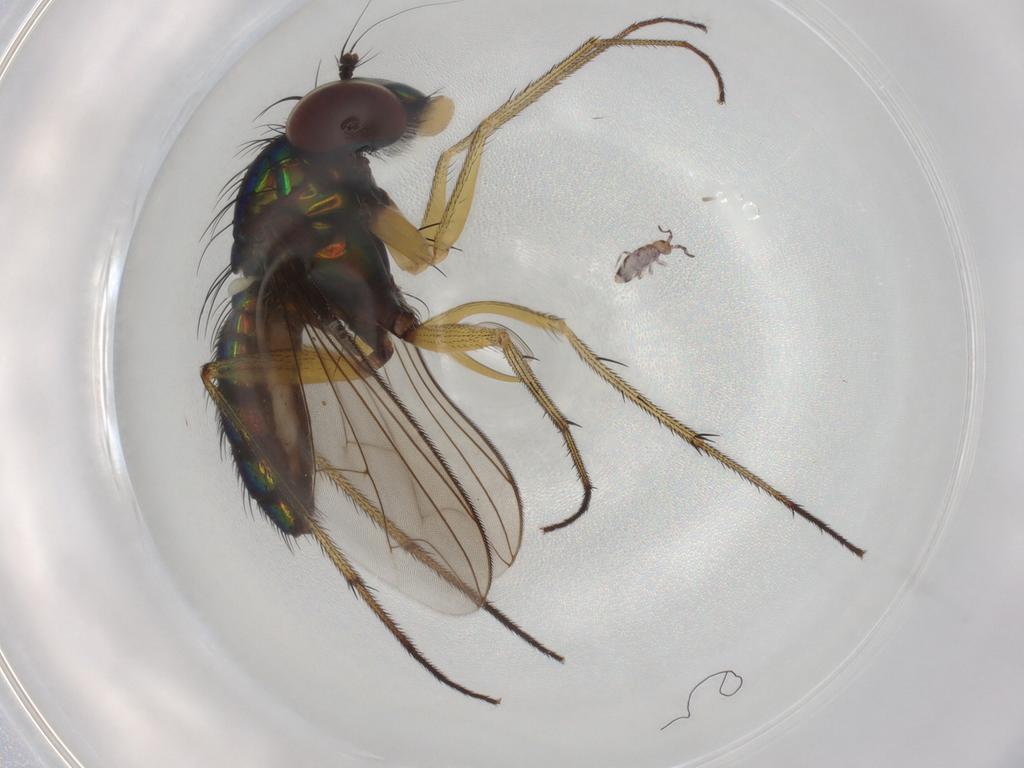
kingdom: Animalia
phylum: Arthropoda
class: Insecta
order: Diptera
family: Dolichopodidae
